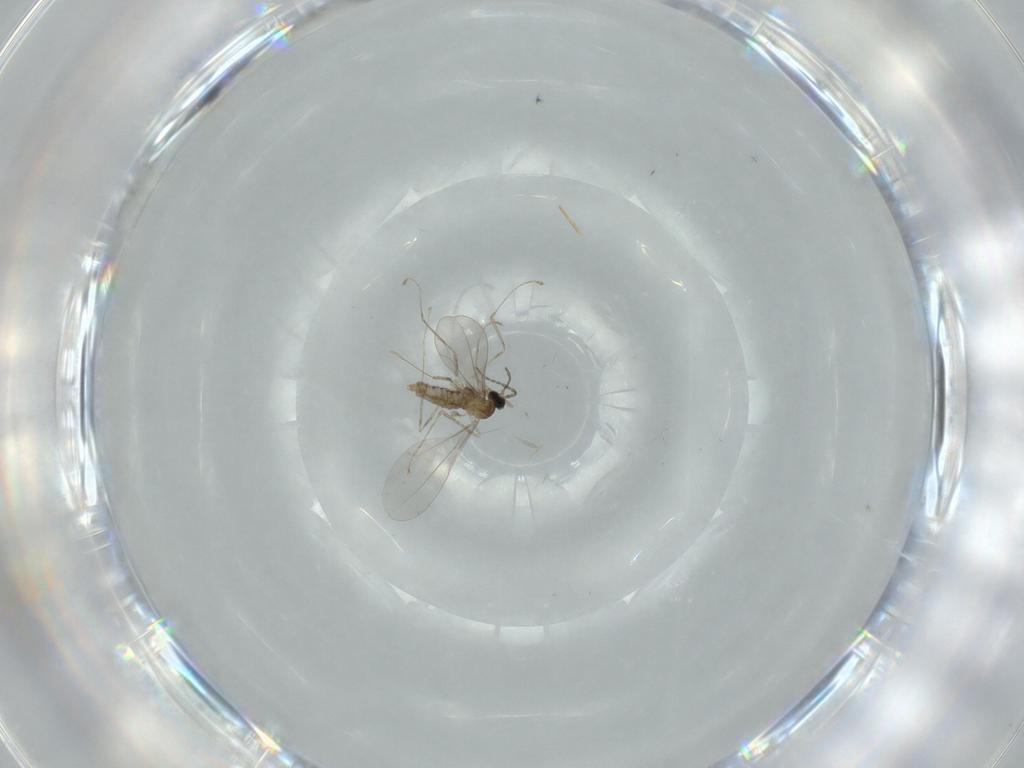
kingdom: Animalia
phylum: Arthropoda
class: Insecta
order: Diptera
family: Cecidomyiidae
